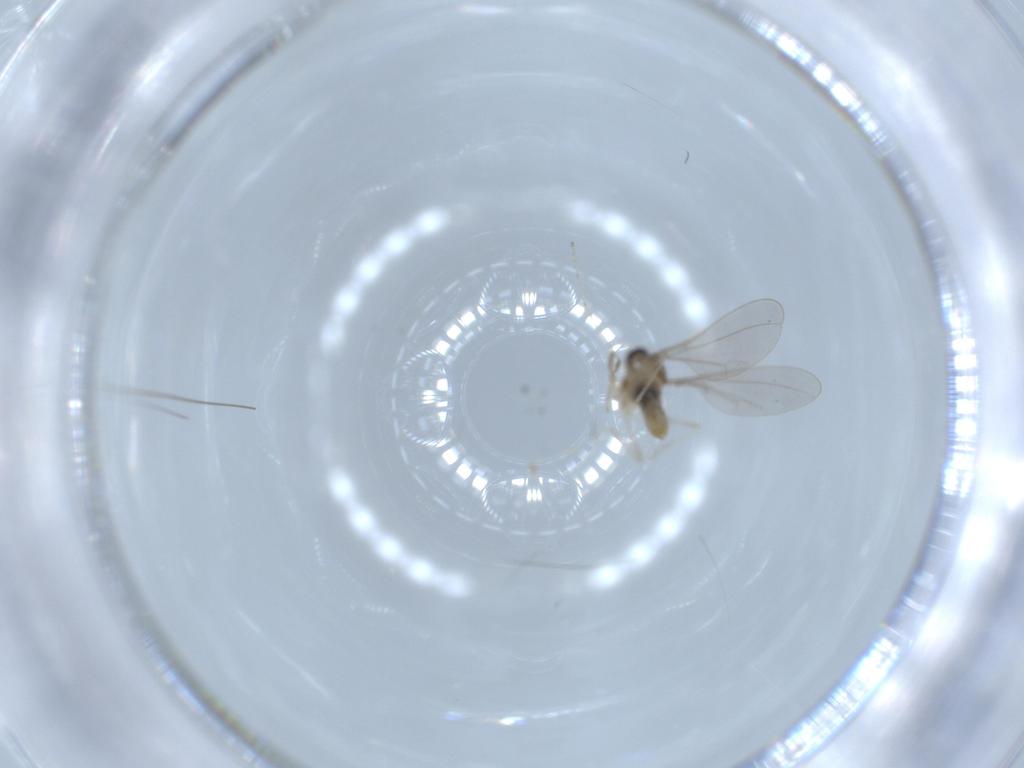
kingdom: Animalia
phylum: Arthropoda
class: Insecta
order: Diptera
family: Cecidomyiidae
